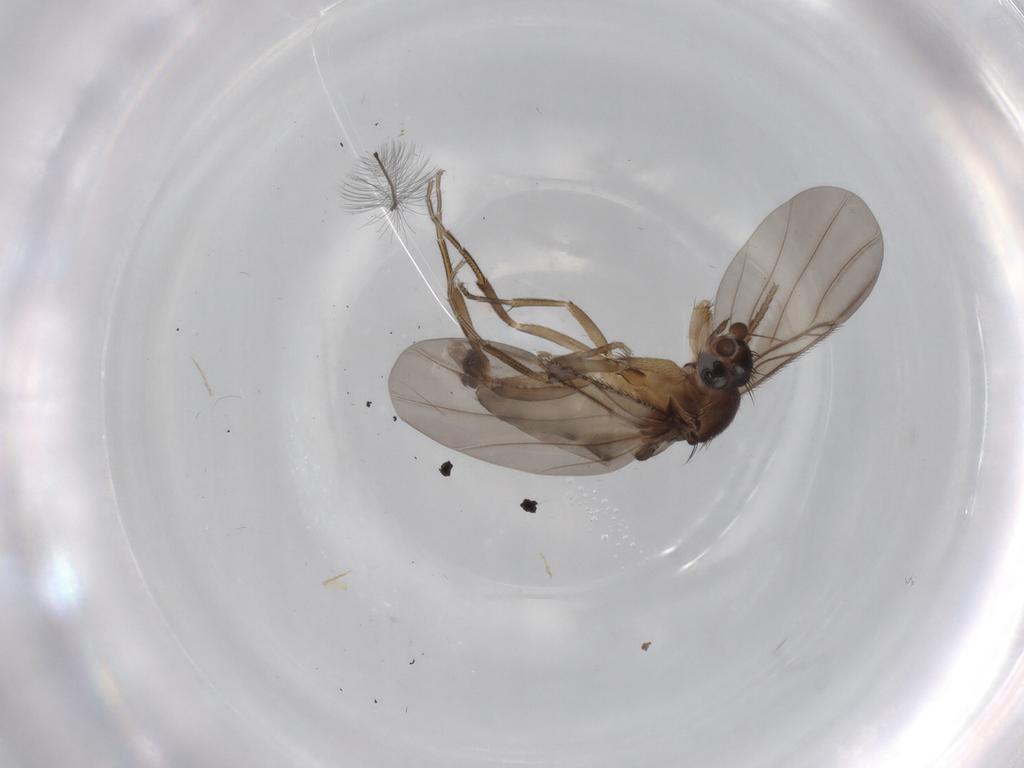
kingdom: Animalia
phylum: Arthropoda
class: Insecta
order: Diptera
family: Phoridae
